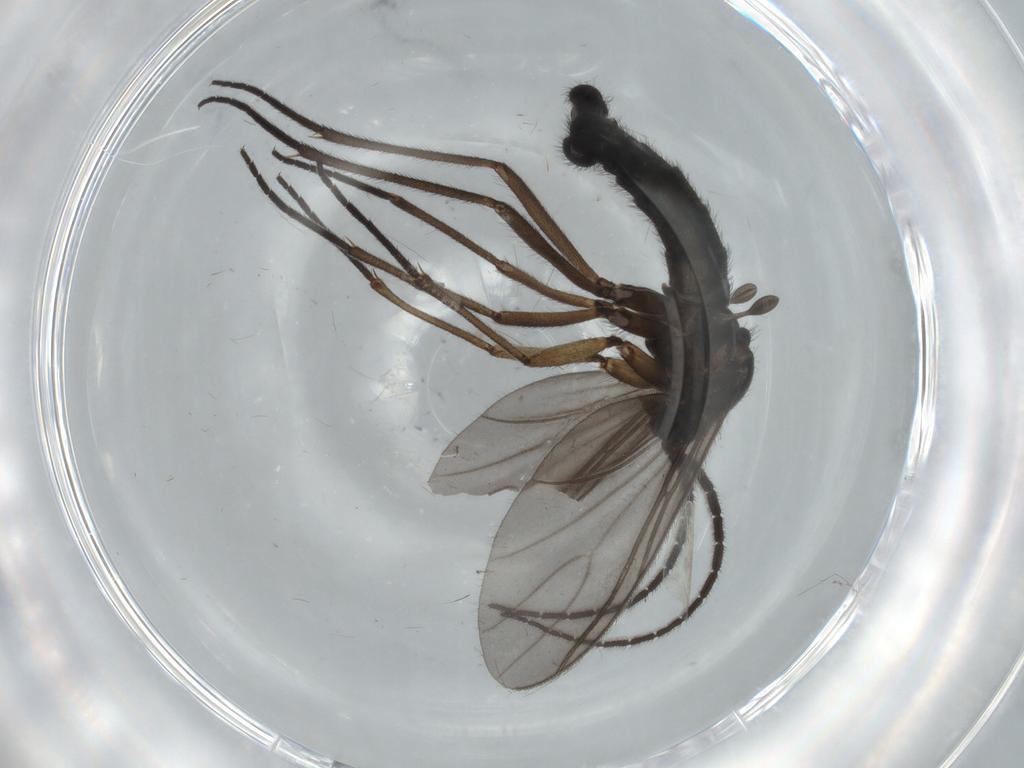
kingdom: Animalia
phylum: Arthropoda
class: Insecta
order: Diptera
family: Sciaridae
